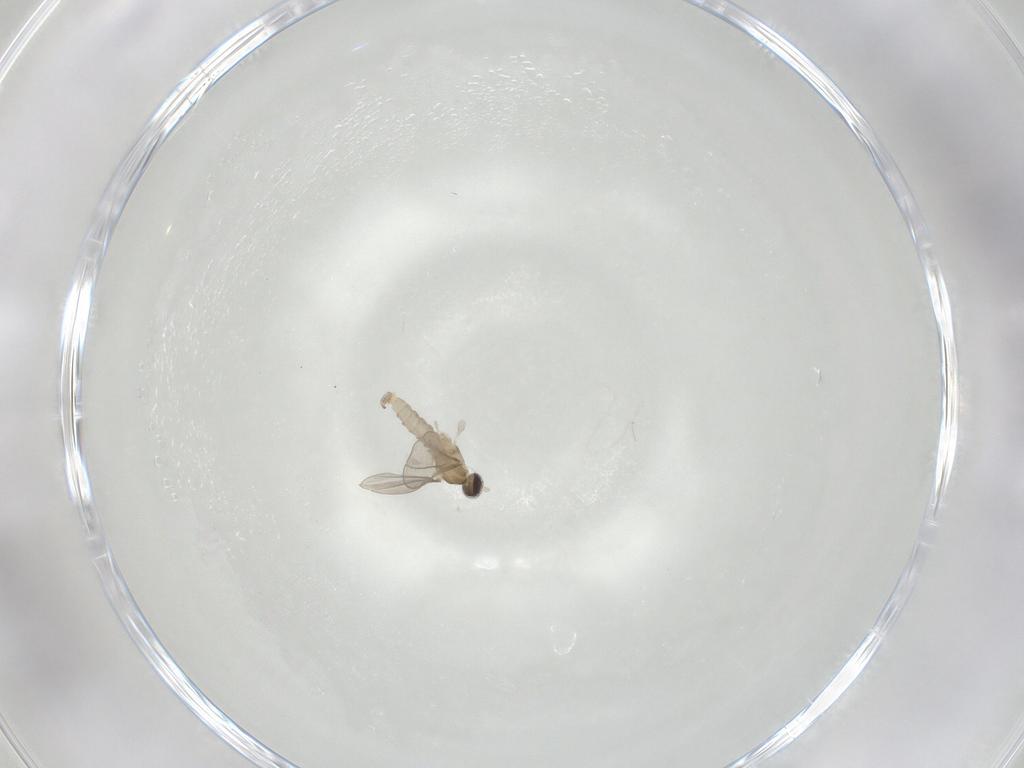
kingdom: Animalia
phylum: Arthropoda
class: Insecta
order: Diptera
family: Cecidomyiidae
